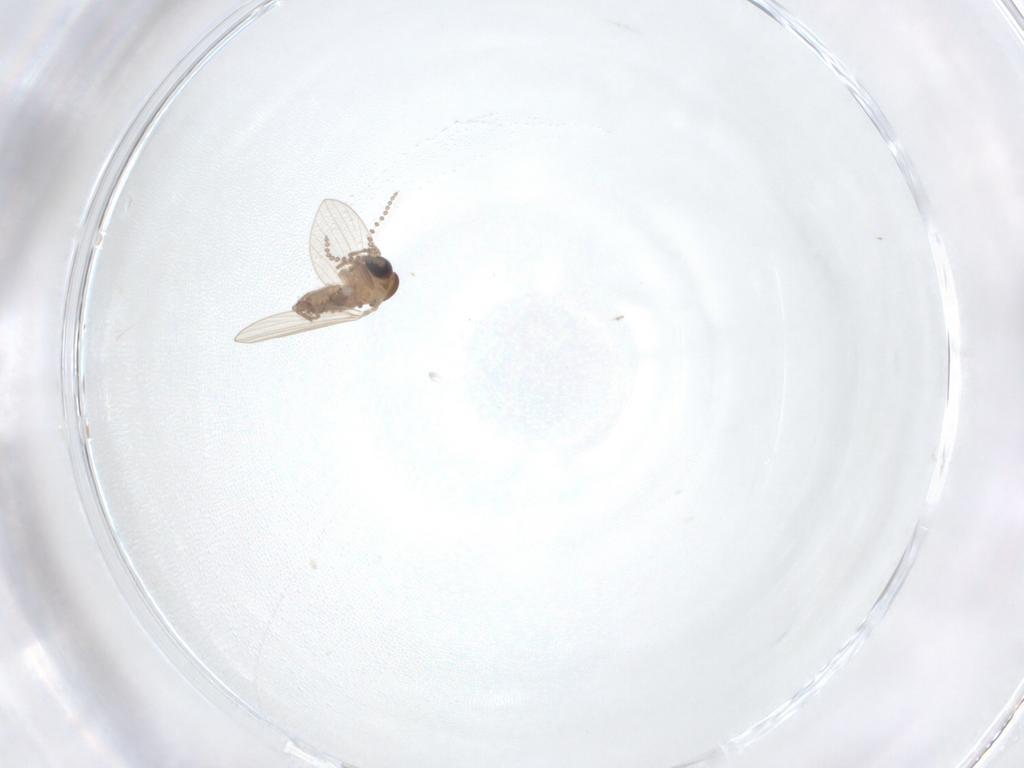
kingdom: Animalia
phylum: Arthropoda
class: Insecta
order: Diptera
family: Psychodidae
